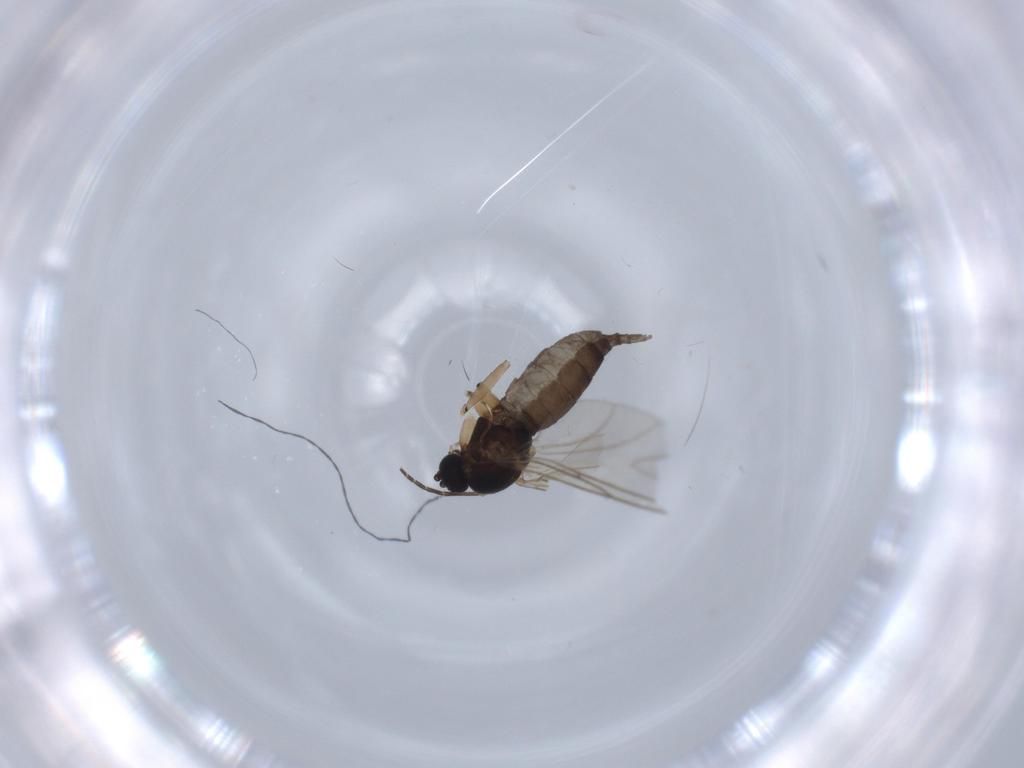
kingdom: Animalia
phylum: Arthropoda
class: Insecta
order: Diptera
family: Sciaridae
